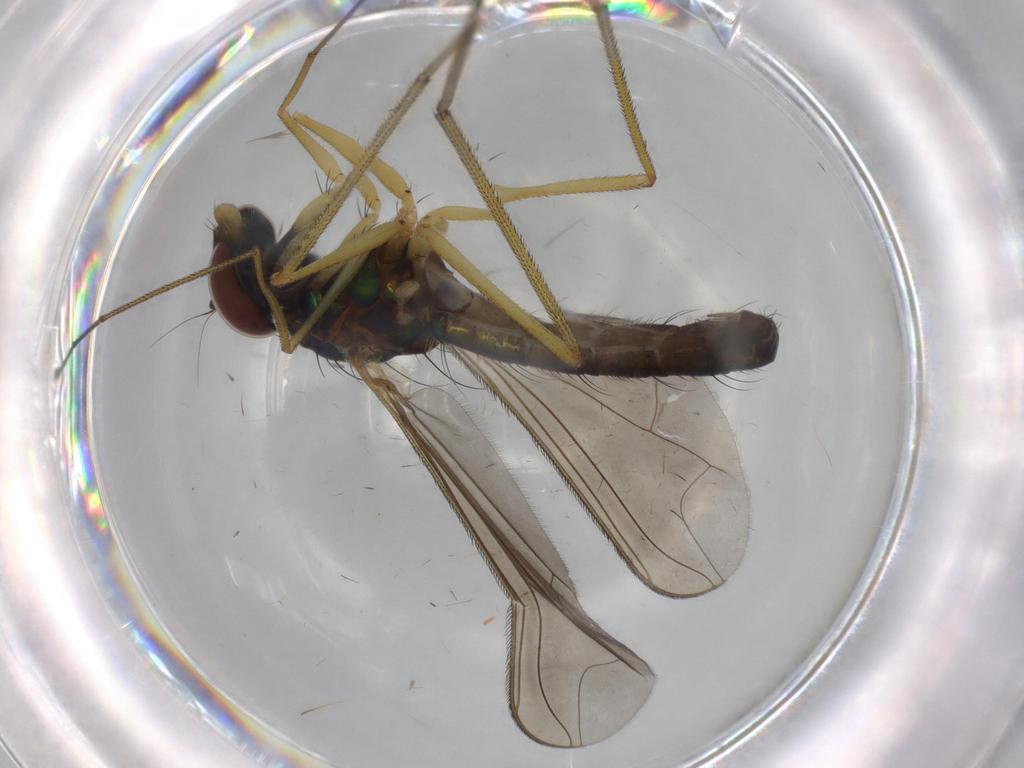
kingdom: Animalia
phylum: Arthropoda
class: Insecta
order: Diptera
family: Dolichopodidae
